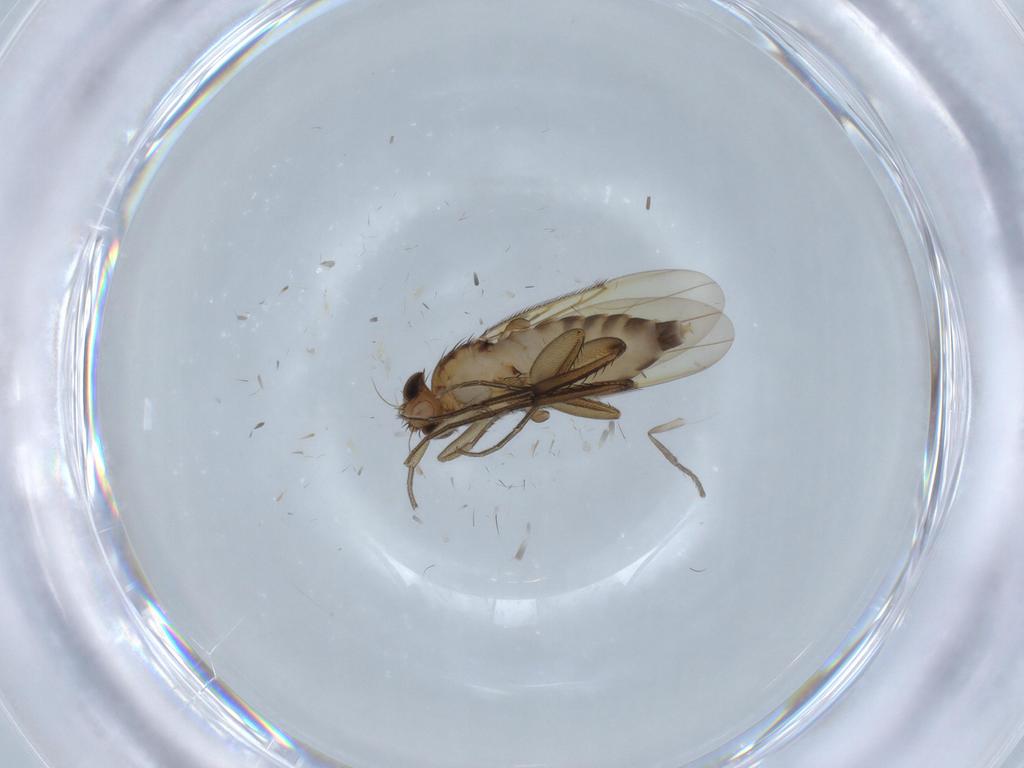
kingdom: Animalia
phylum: Arthropoda
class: Insecta
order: Diptera
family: Phoridae
